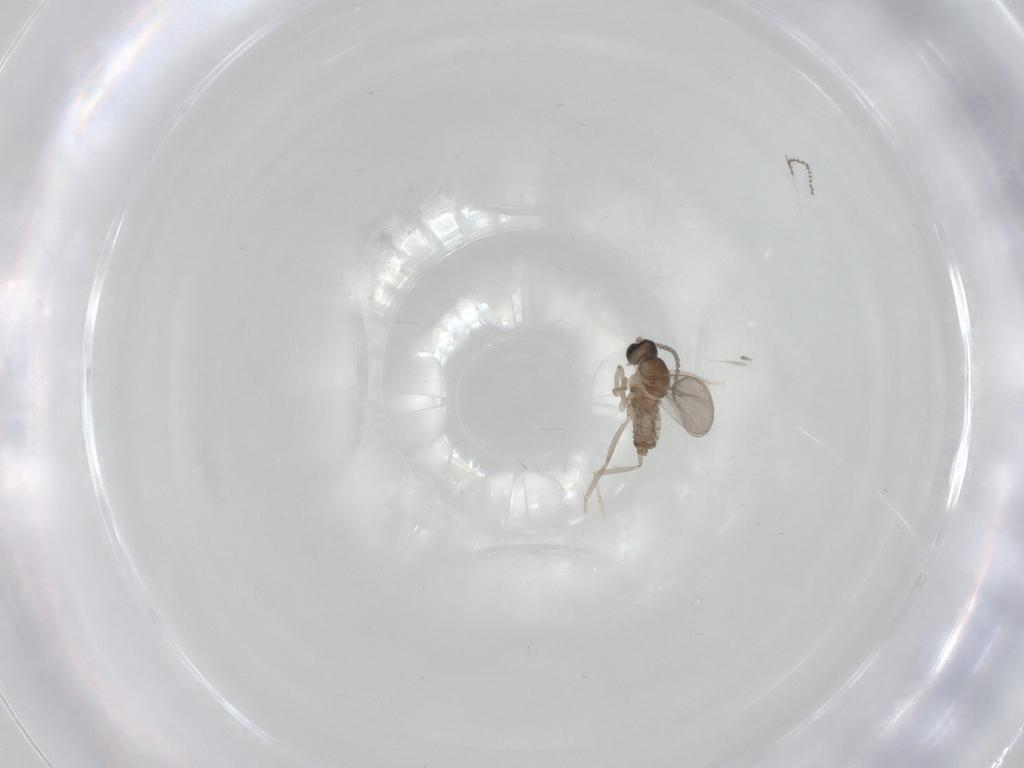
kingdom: Animalia
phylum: Arthropoda
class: Insecta
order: Diptera
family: Cecidomyiidae
